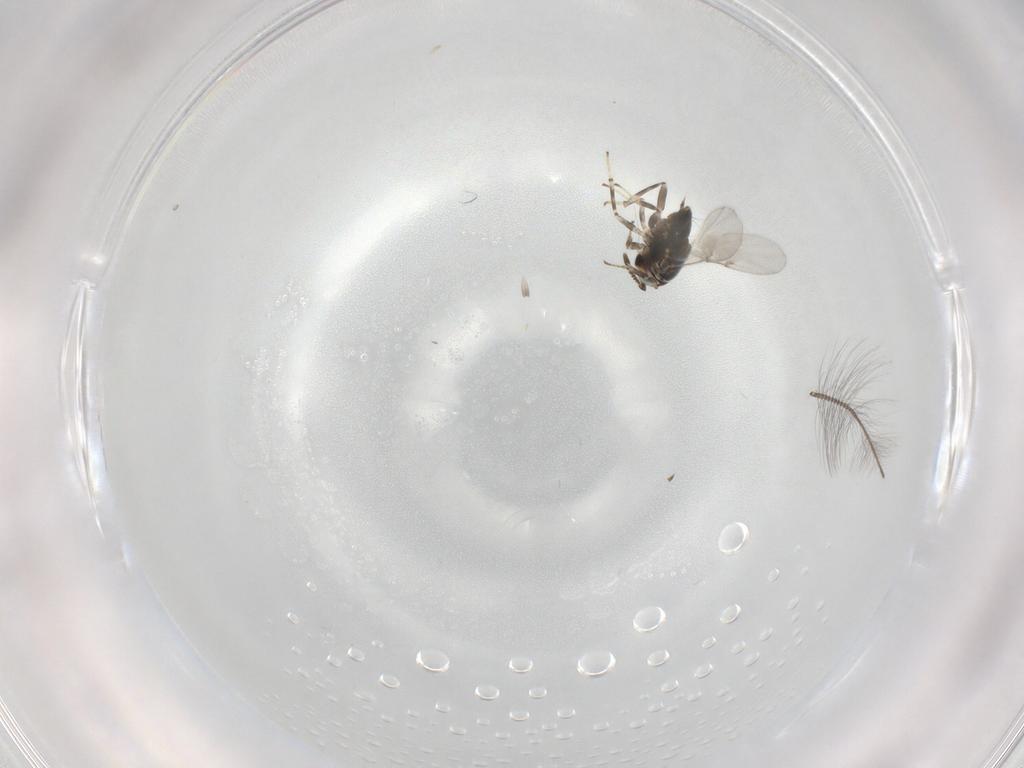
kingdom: Animalia
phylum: Arthropoda
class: Insecta
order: Hymenoptera
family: Encyrtidae
